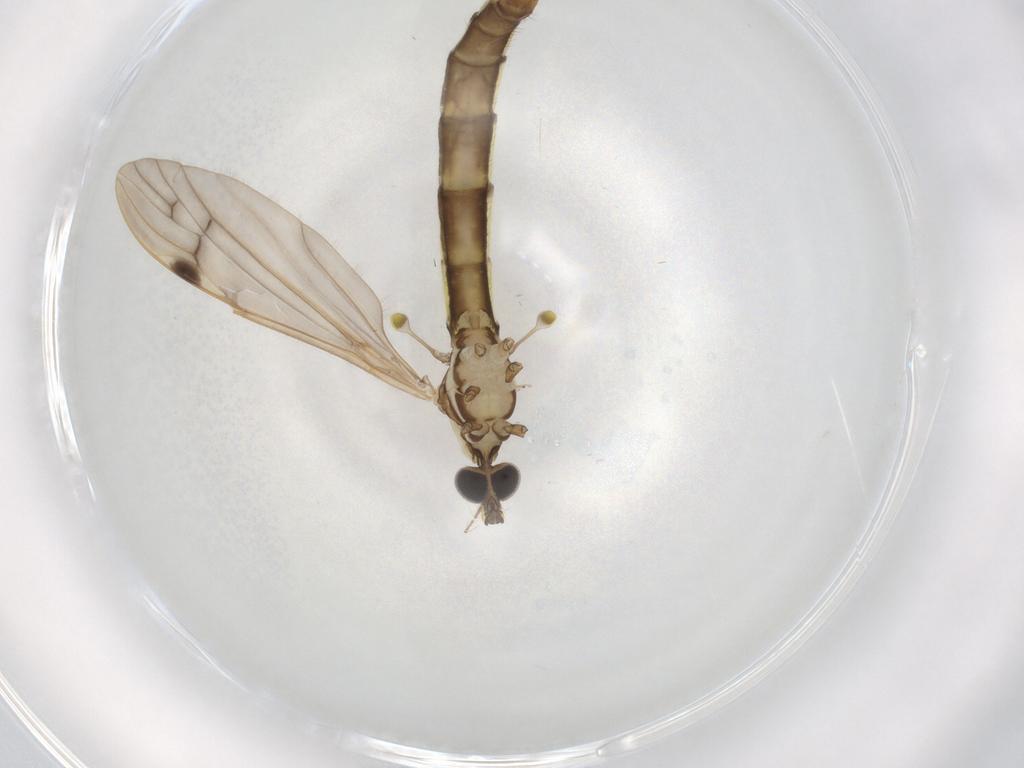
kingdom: Animalia
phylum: Arthropoda
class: Insecta
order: Diptera
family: Limoniidae
